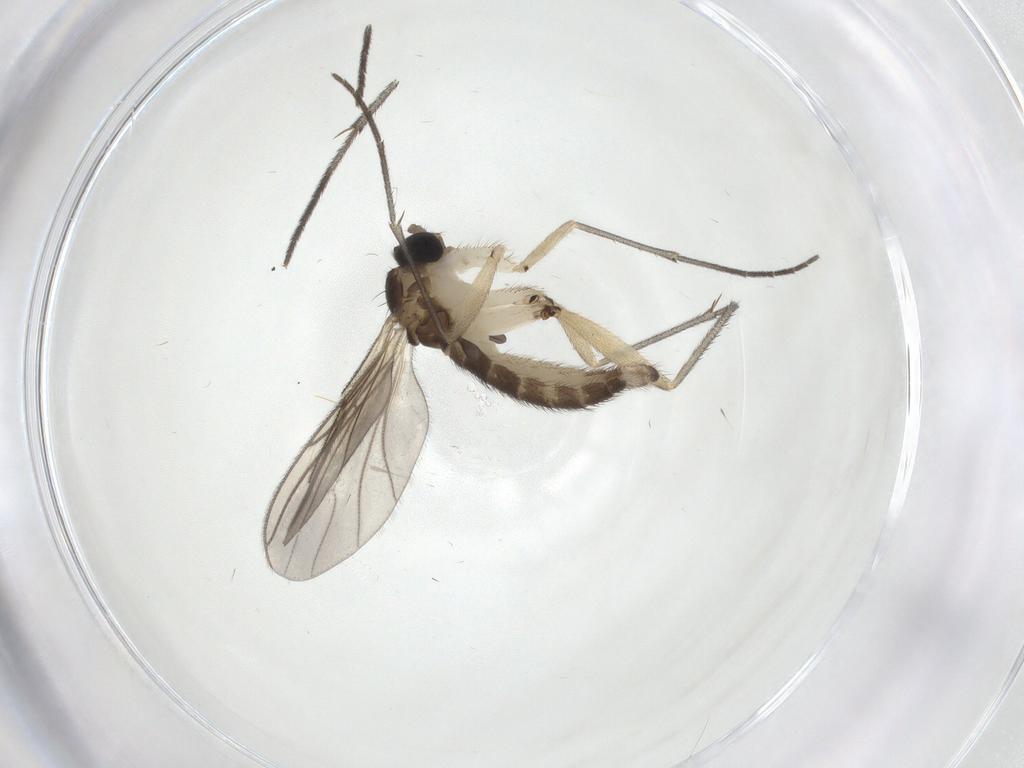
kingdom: Animalia
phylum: Arthropoda
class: Insecta
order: Diptera
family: Sciaridae
